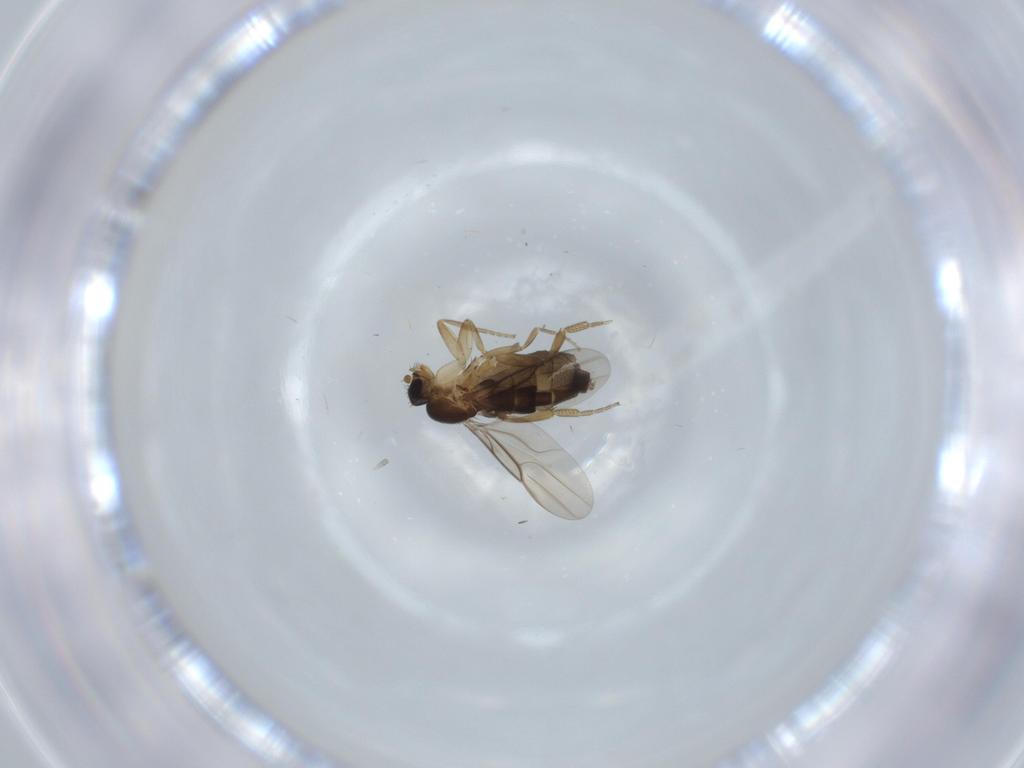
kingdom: Animalia
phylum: Arthropoda
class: Insecta
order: Diptera
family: Phoridae
